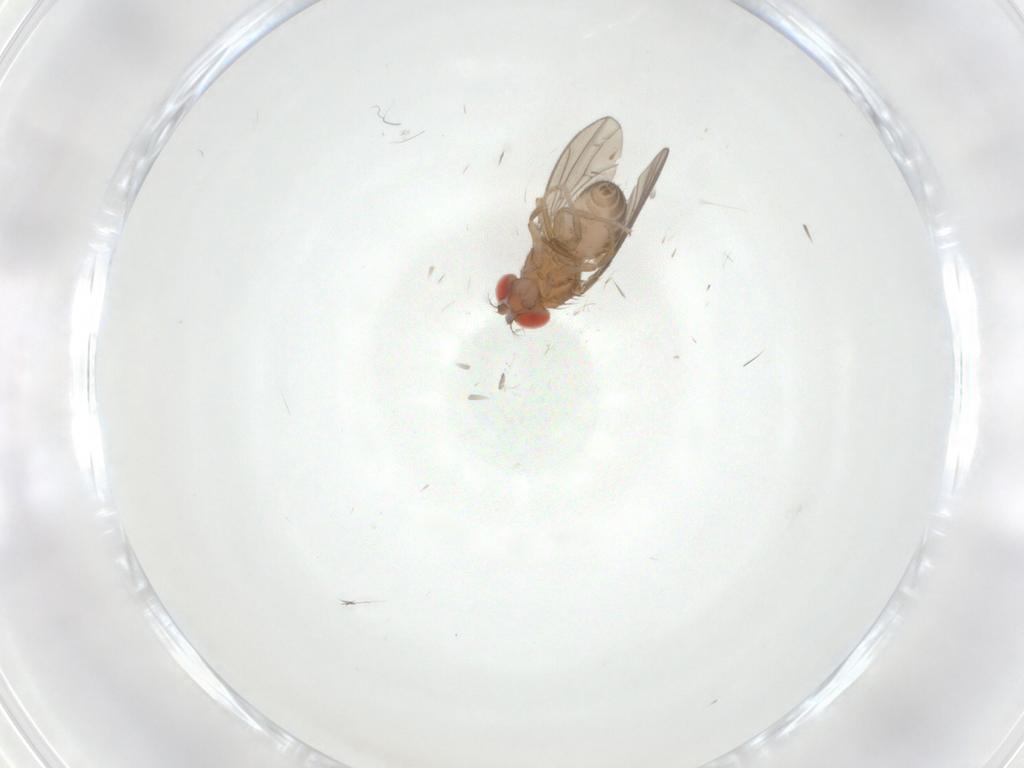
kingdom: Animalia
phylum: Arthropoda
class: Insecta
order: Diptera
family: Drosophilidae
